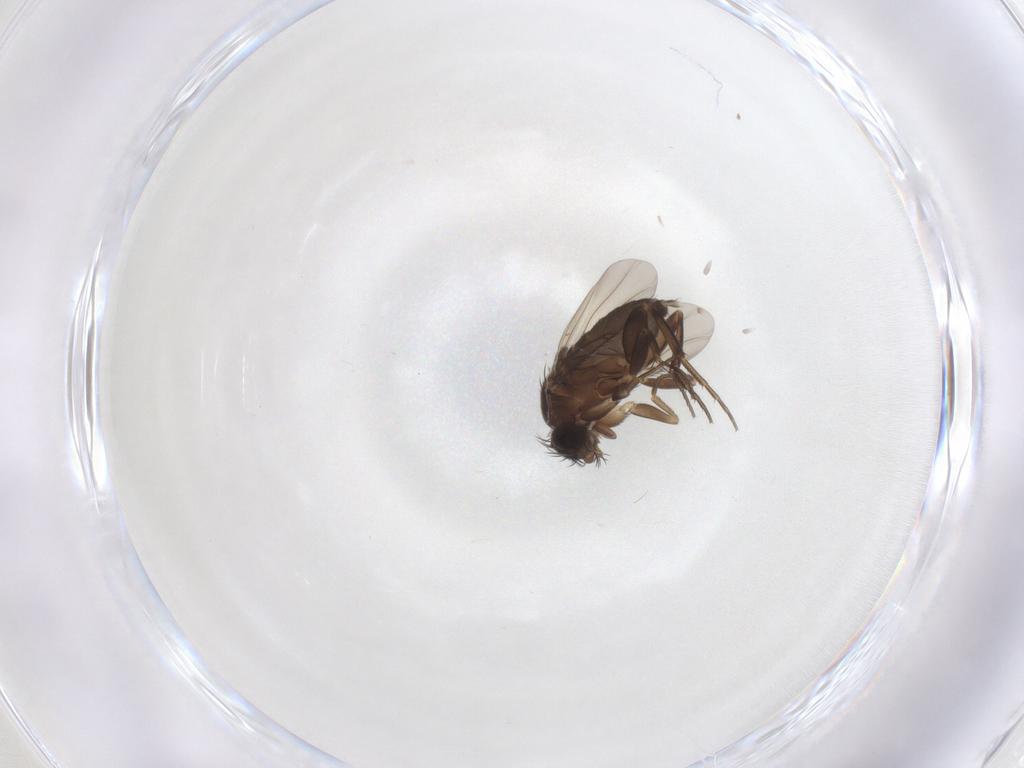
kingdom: Animalia
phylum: Arthropoda
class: Insecta
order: Diptera
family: Phoridae
